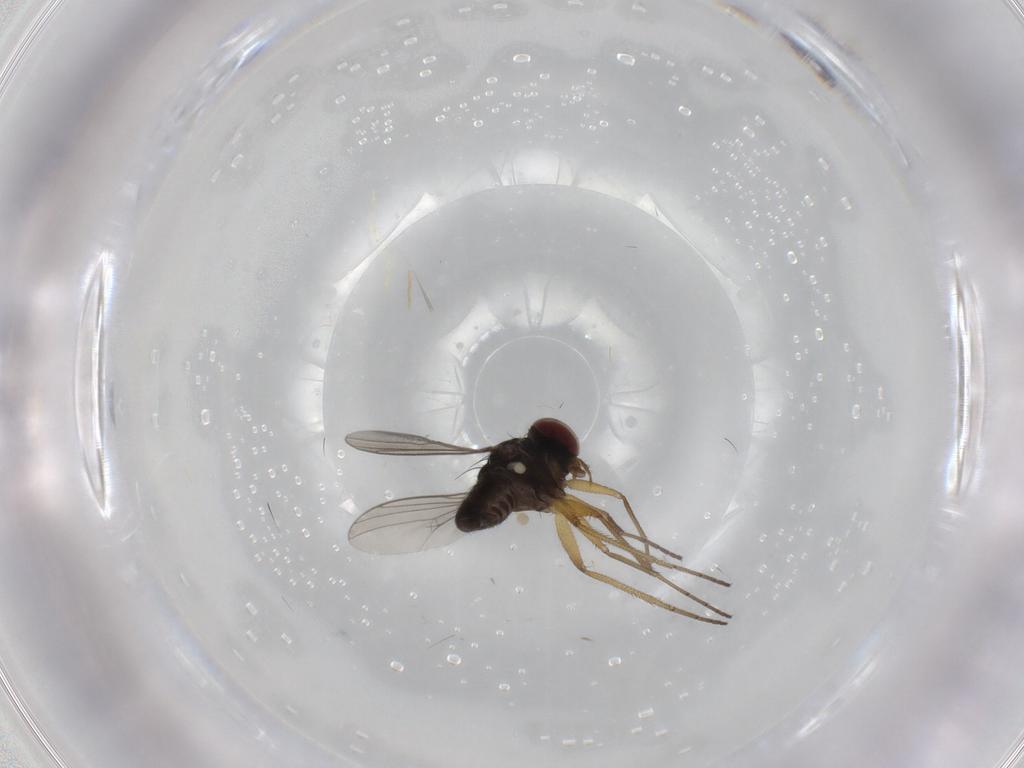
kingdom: Animalia
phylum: Arthropoda
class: Insecta
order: Diptera
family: Dolichopodidae
